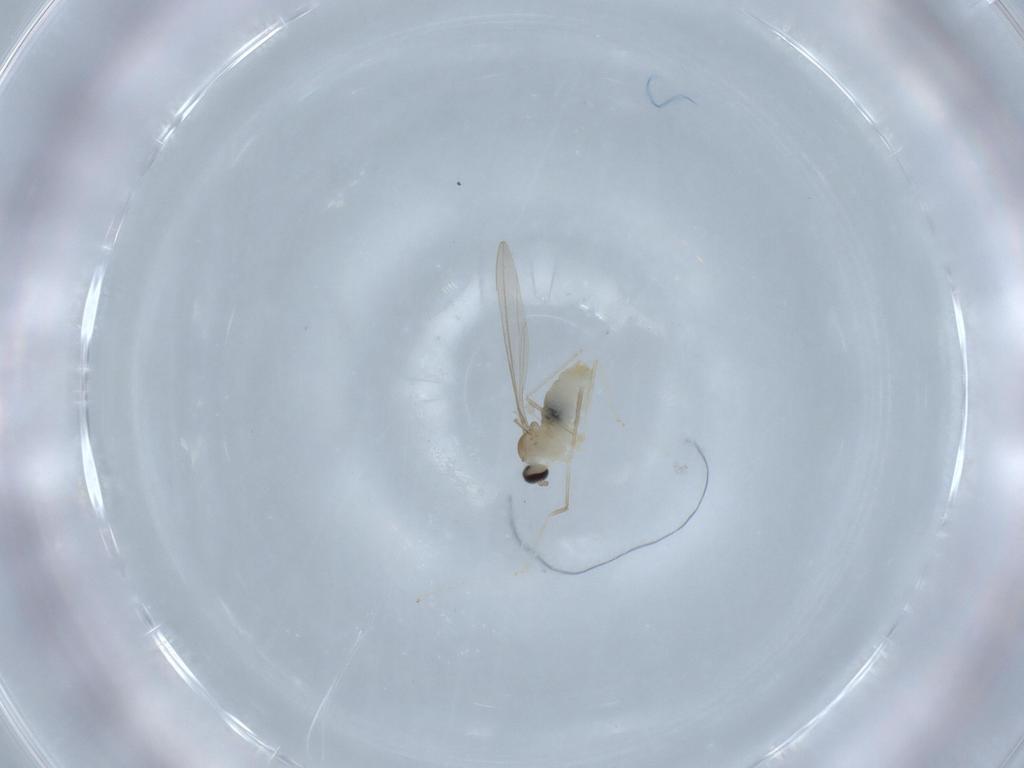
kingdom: Animalia
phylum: Arthropoda
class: Insecta
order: Diptera
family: Cecidomyiidae
